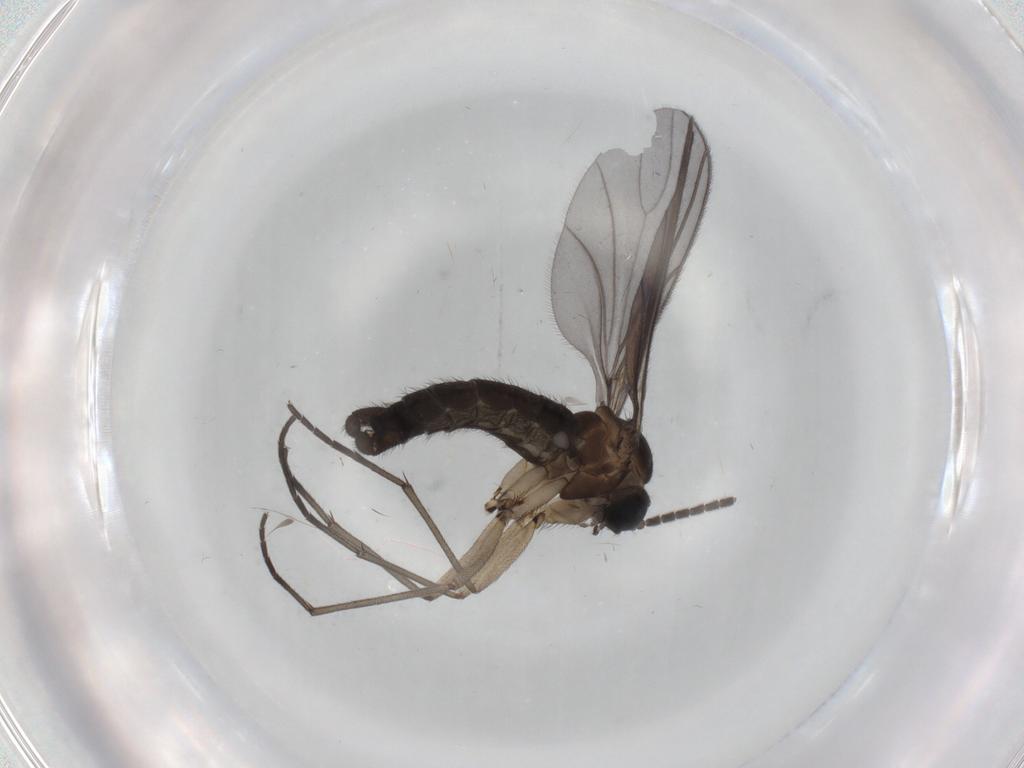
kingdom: Animalia
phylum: Arthropoda
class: Insecta
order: Diptera
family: Sciaridae
